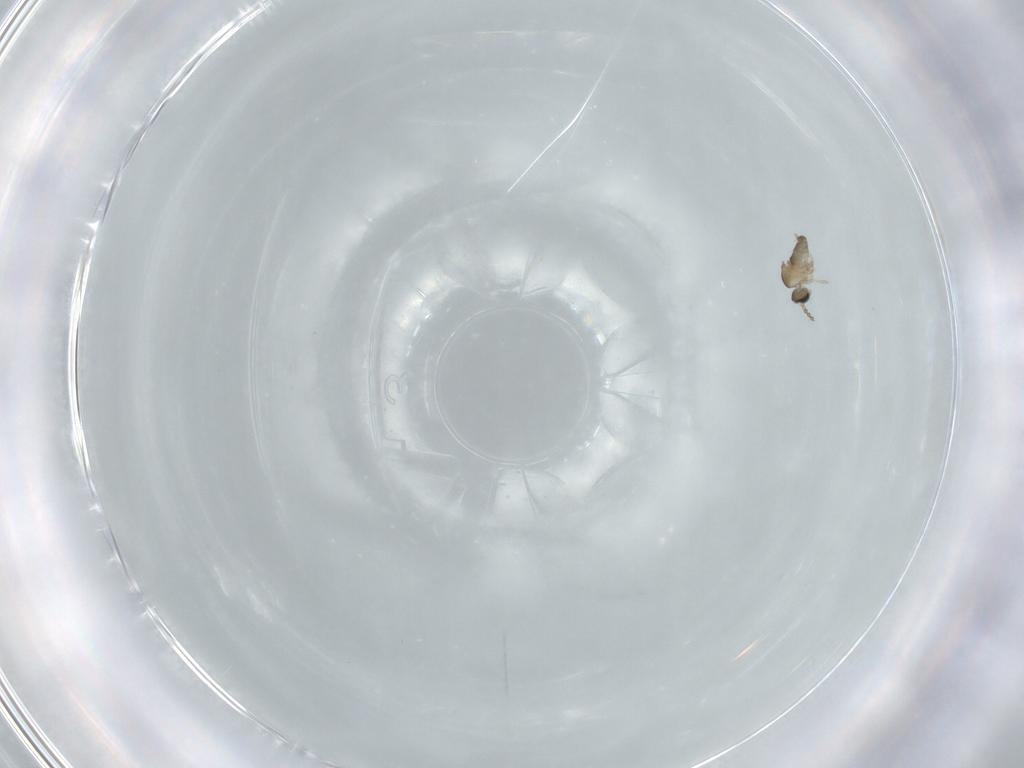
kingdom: Animalia
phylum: Arthropoda
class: Insecta
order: Diptera
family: Cecidomyiidae
